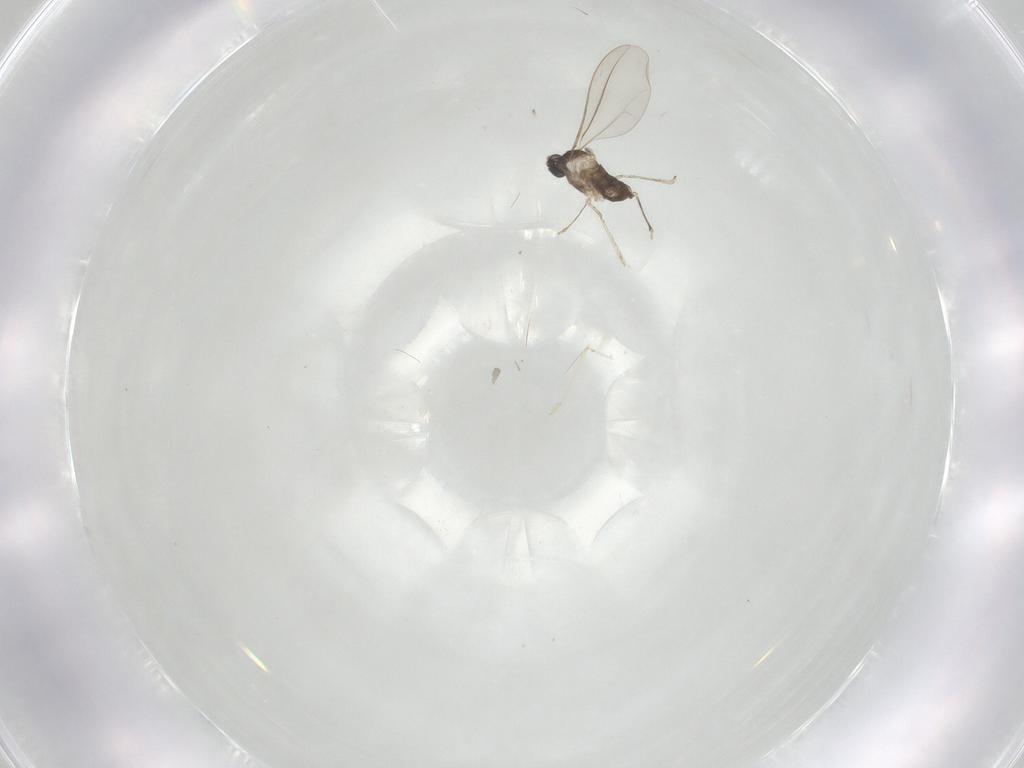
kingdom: Animalia
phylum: Arthropoda
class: Insecta
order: Diptera
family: Cecidomyiidae
